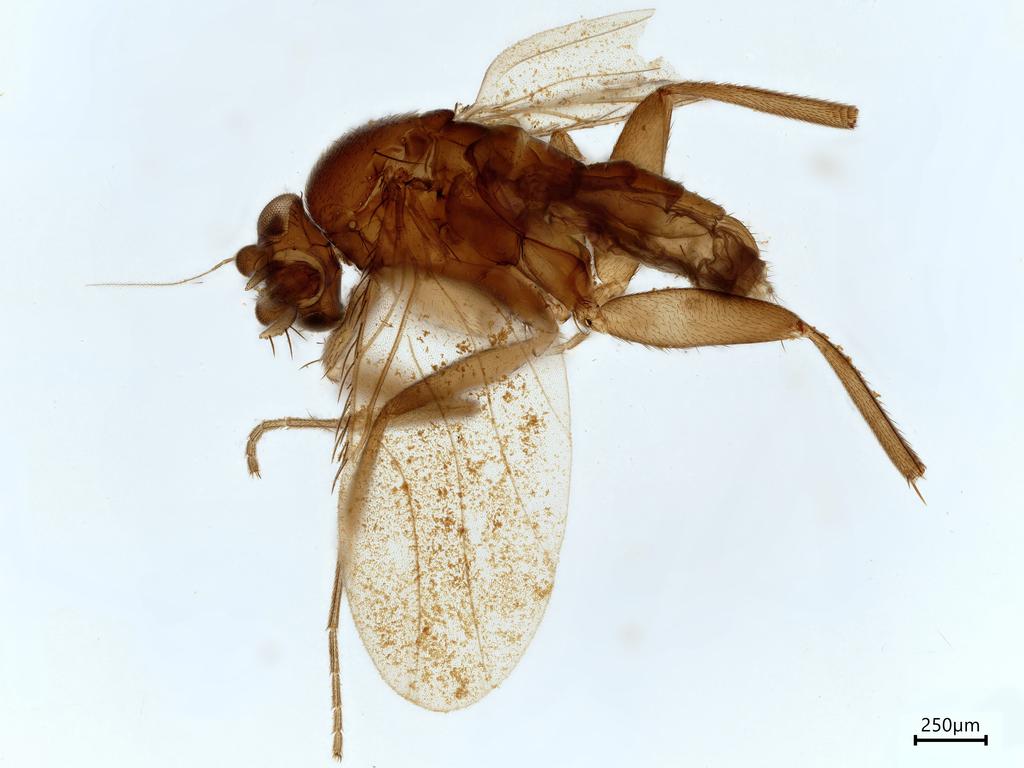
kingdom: Animalia
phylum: Arthropoda
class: Insecta
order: Diptera
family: Phoridae
